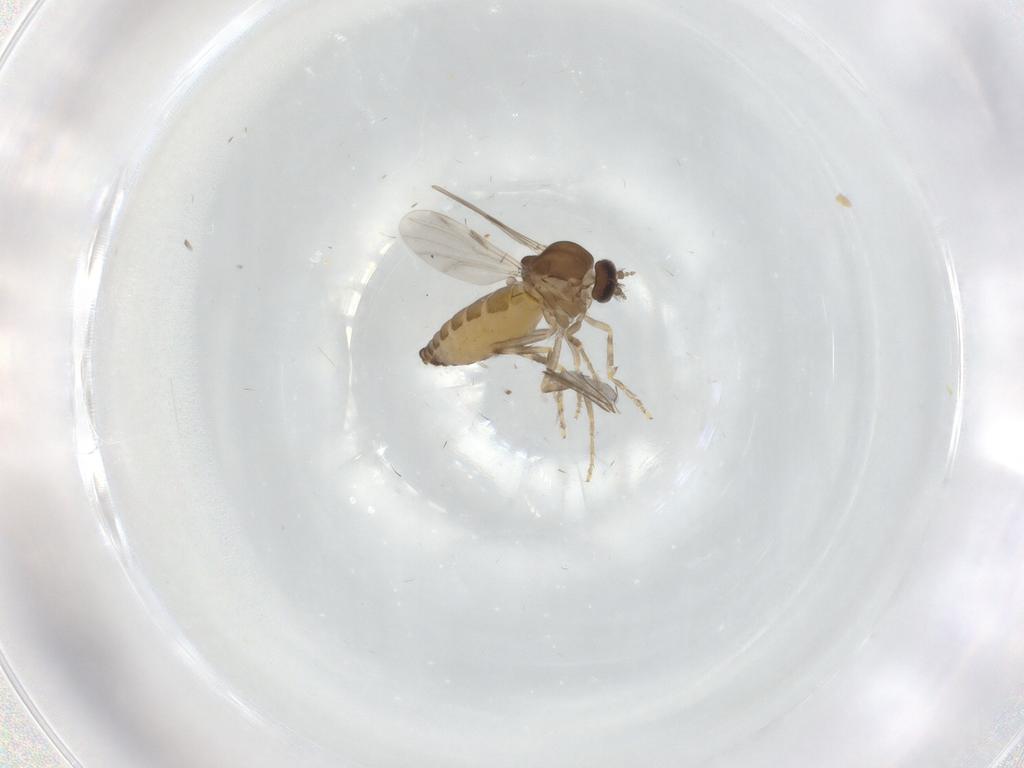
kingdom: Animalia
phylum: Arthropoda
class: Insecta
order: Diptera
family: Ceratopogonidae
